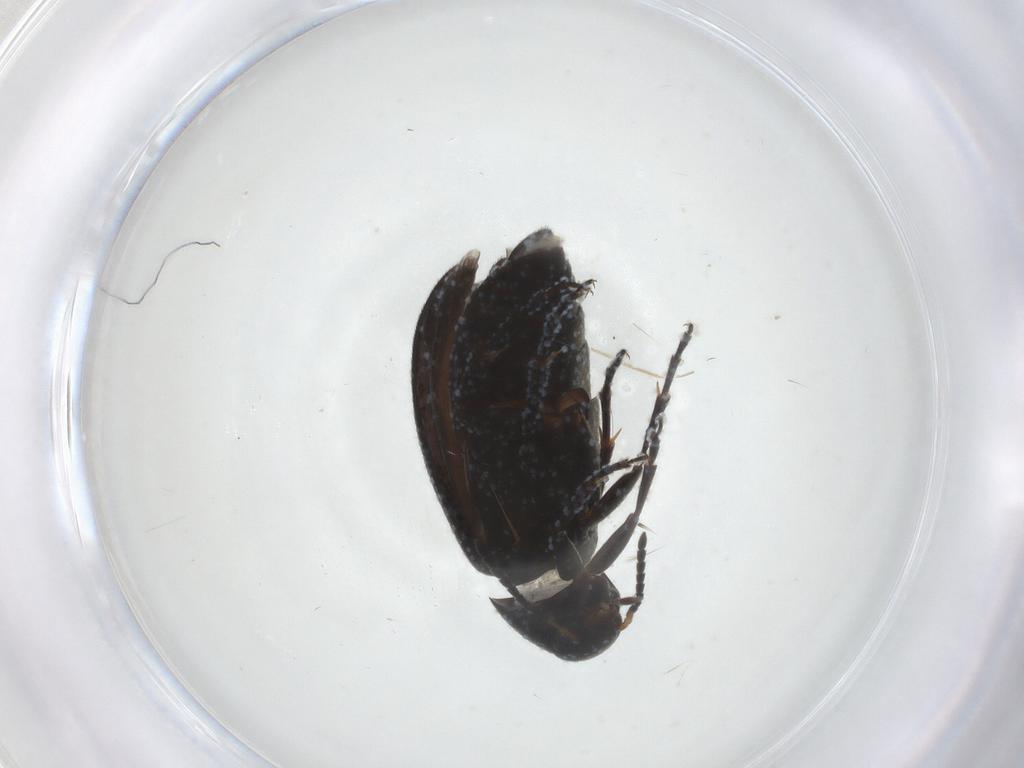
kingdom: Animalia
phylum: Arthropoda
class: Insecta
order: Coleoptera
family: Scraptiidae
